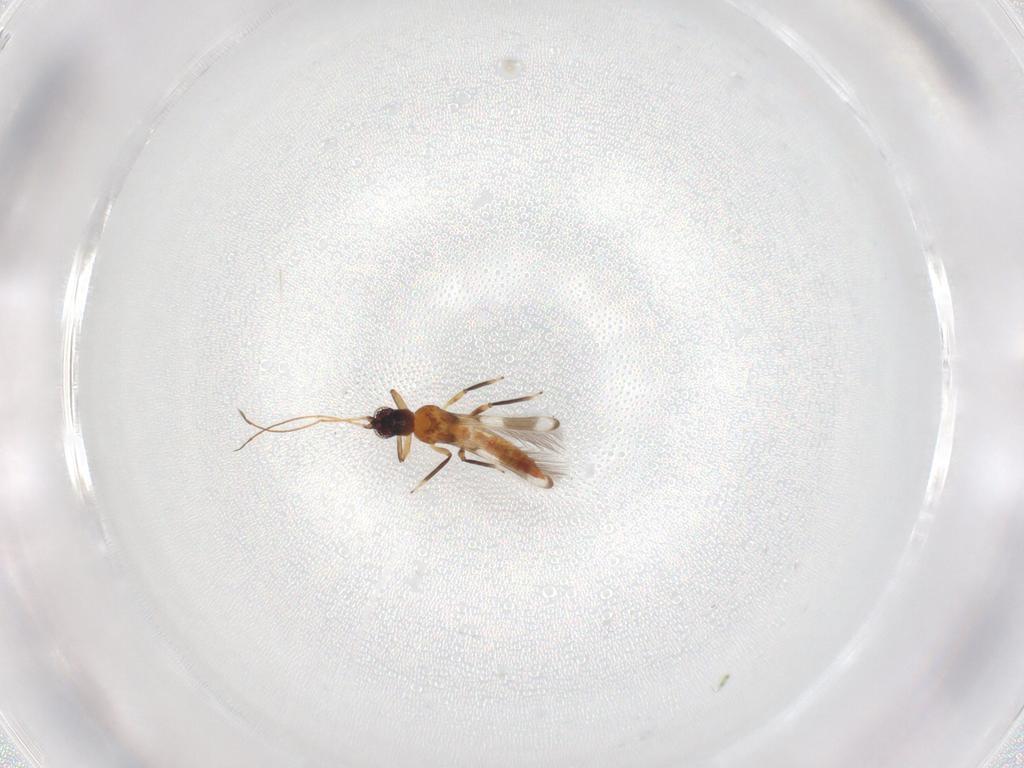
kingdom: Animalia
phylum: Arthropoda
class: Insecta
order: Thysanoptera
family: Aeolothripidae
